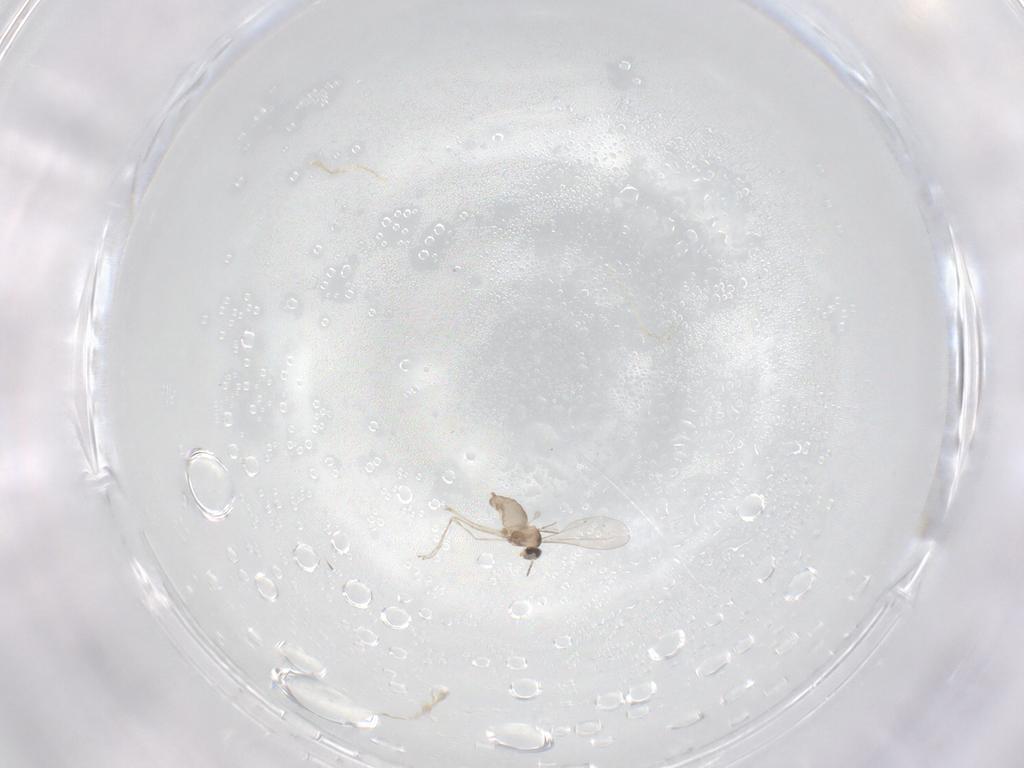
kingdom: Animalia
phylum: Arthropoda
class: Insecta
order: Diptera
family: Cecidomyiidae
